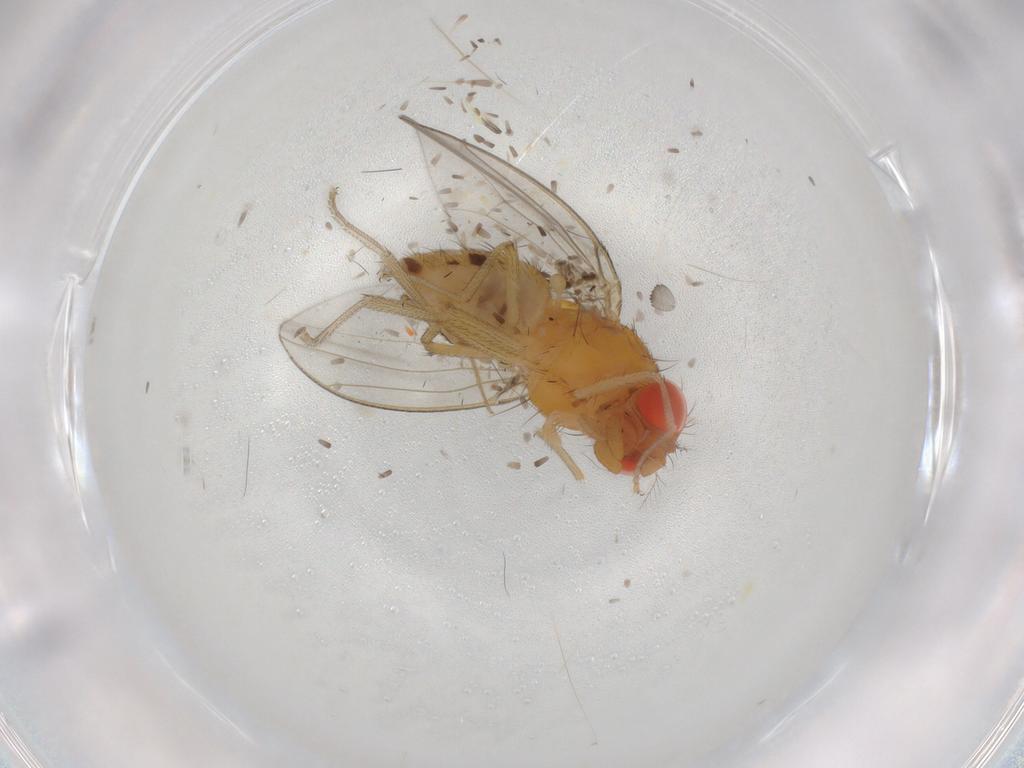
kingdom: Animalia
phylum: Arthropoda
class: Insecta
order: Diptera
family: Drosophilidae
